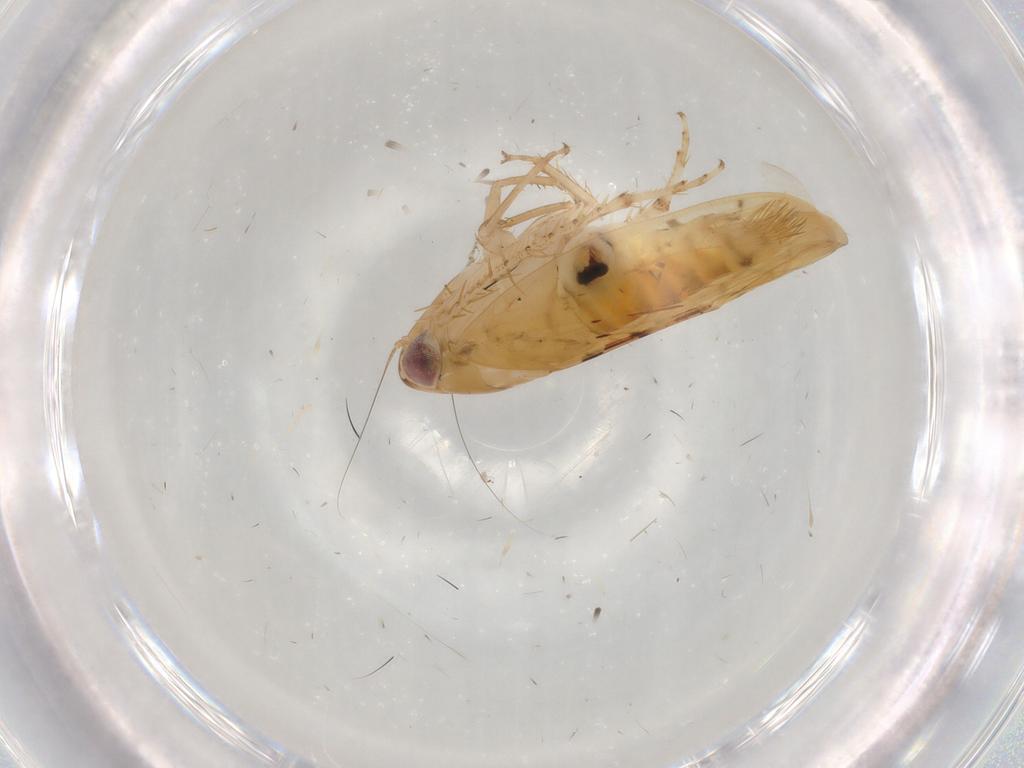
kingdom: Animalia
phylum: Arthropoda
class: Insecta
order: Hemiptera
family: Cicadellidae
